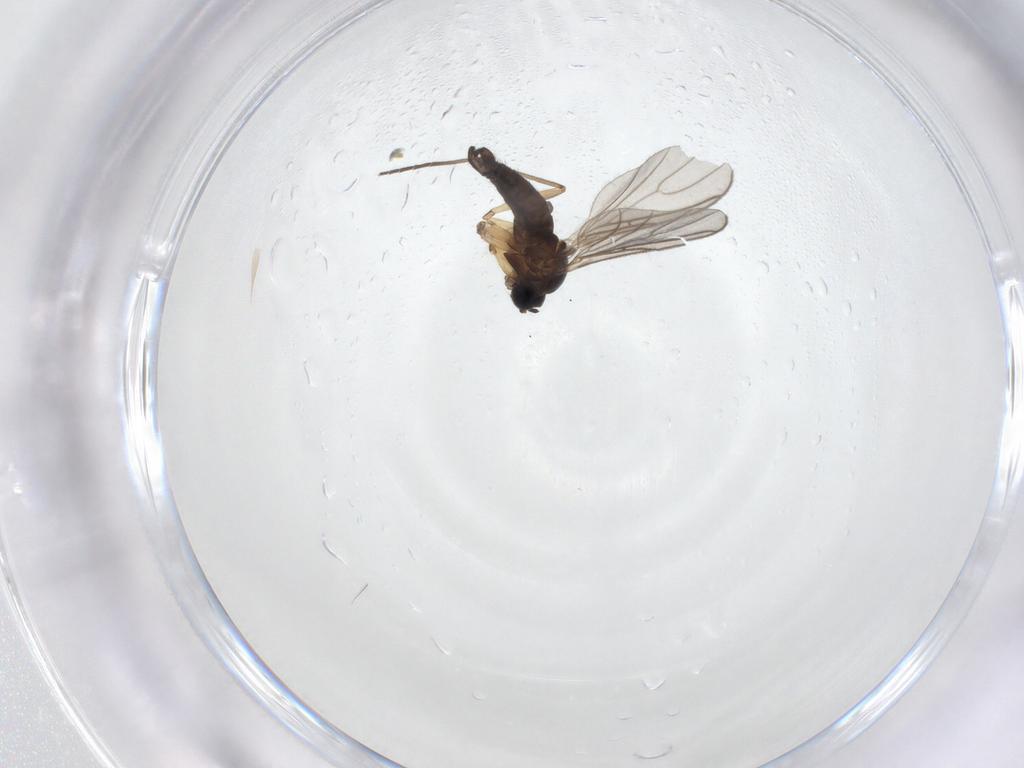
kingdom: Animalia
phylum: Arthropoda
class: Insecta
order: Diptera
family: Sciaridae
